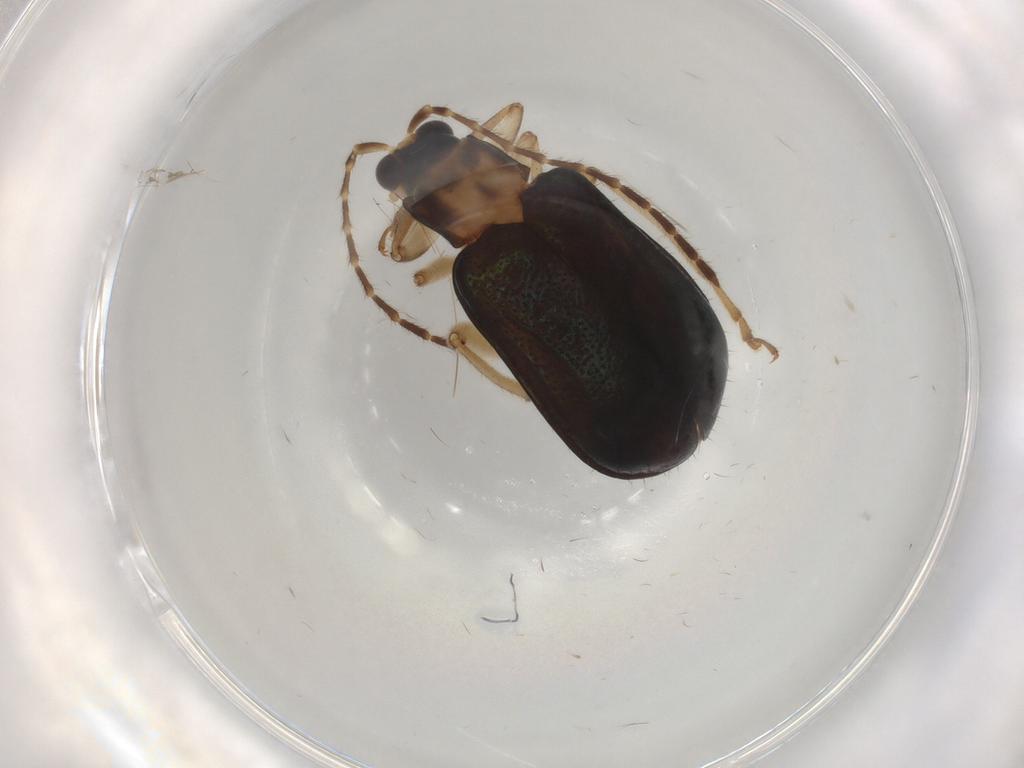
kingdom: Animalia
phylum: Arthropoda
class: Insecta
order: Coleoptera
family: Chrysomelidae
